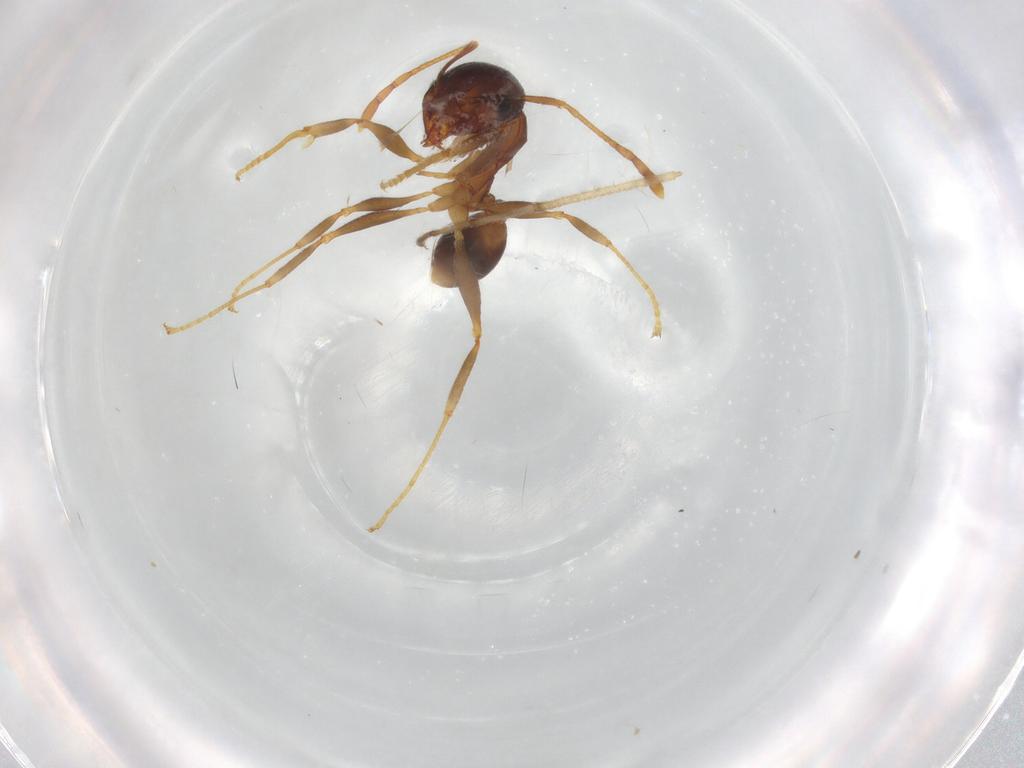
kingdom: Animalia
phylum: Arthropoda
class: Insecta
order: Hymenoptera
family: Formicidae
